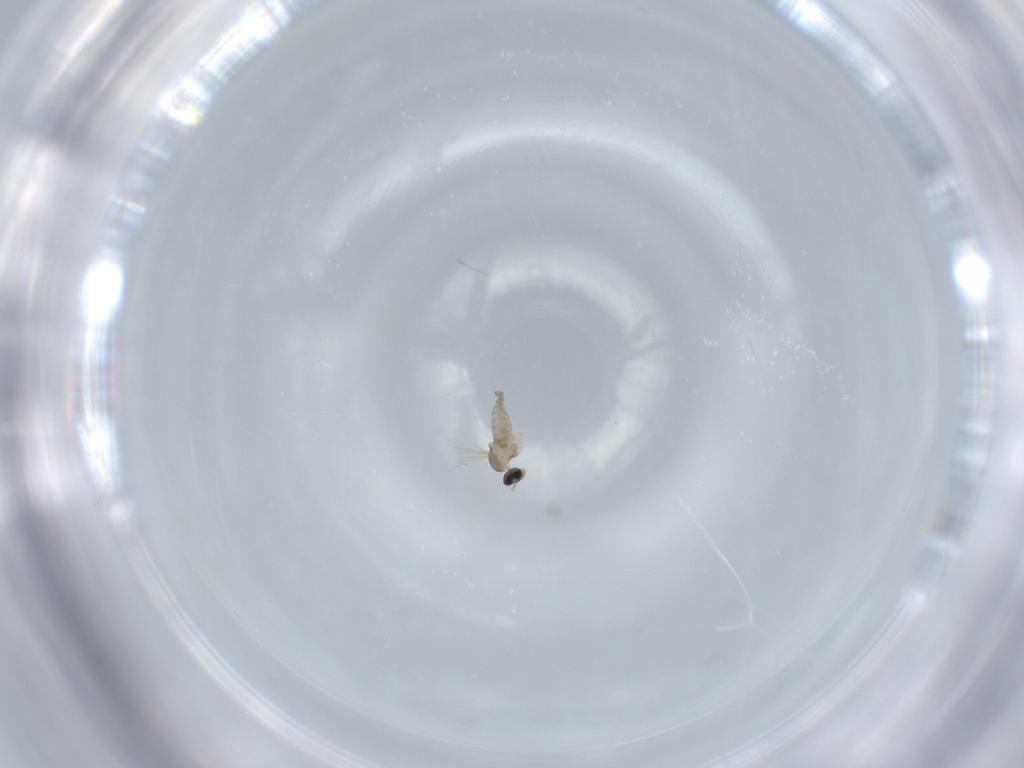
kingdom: Animalia
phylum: Arthropoda
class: Insecta
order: Diptera
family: Cecidomyiidae
